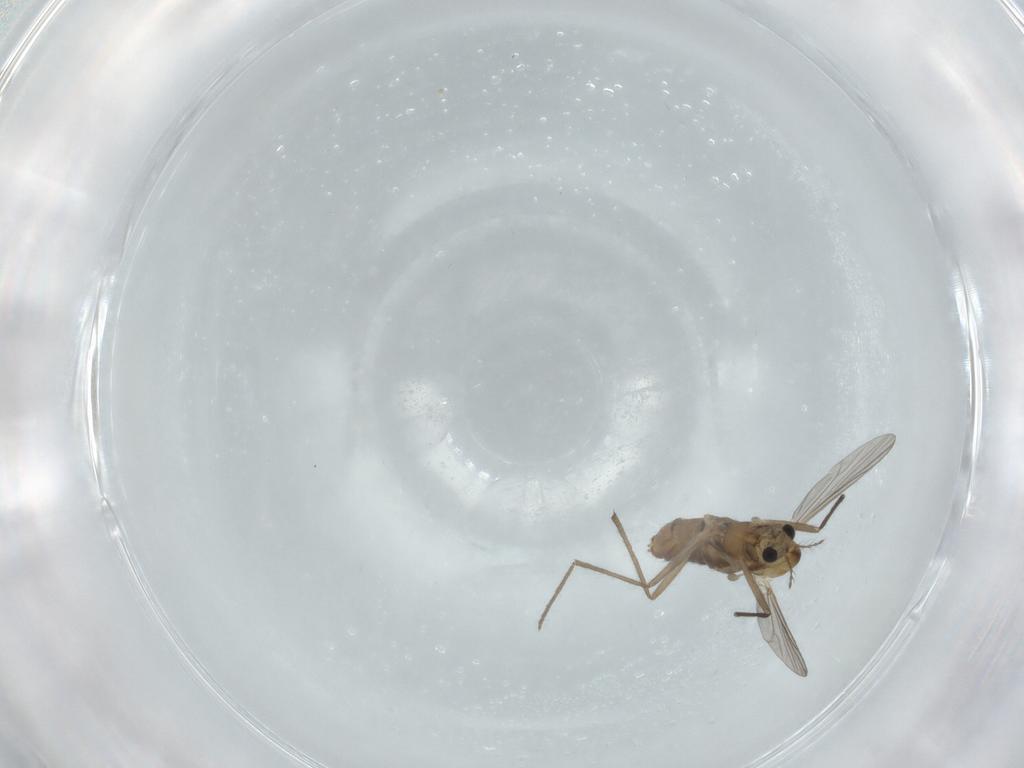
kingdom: Animalia
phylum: Arthropoda
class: Insecta
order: Diptera
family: Chironomidae
